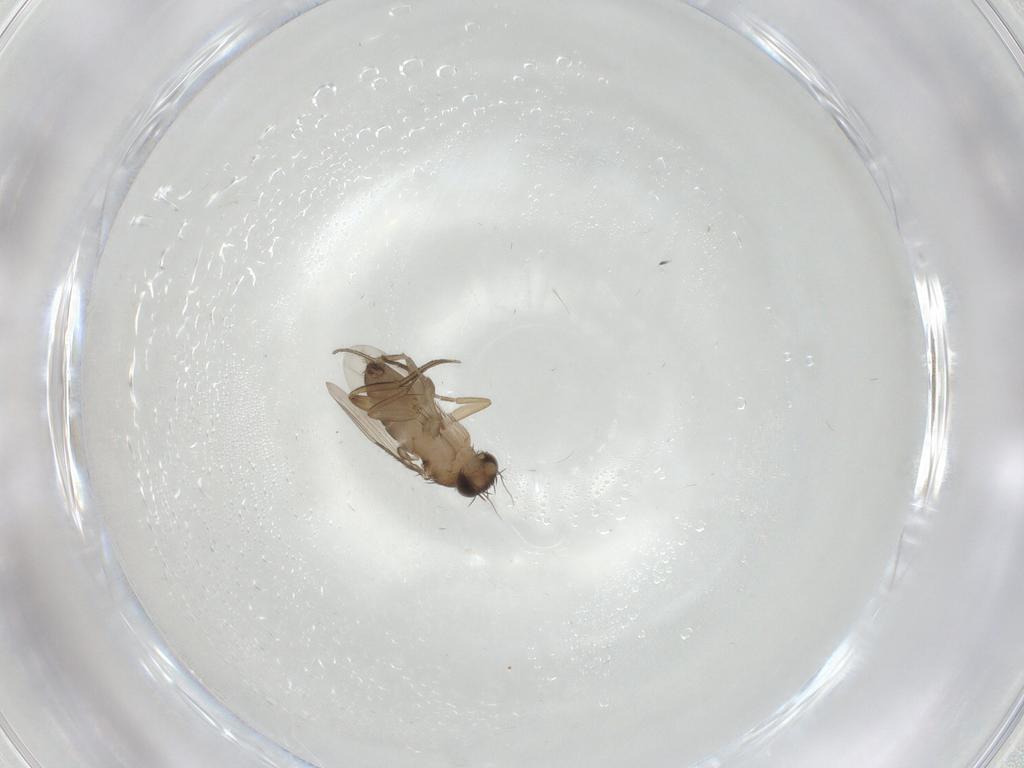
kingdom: Animalia
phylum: Arthropoda
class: Insecta
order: Diptera
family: Phoridae
